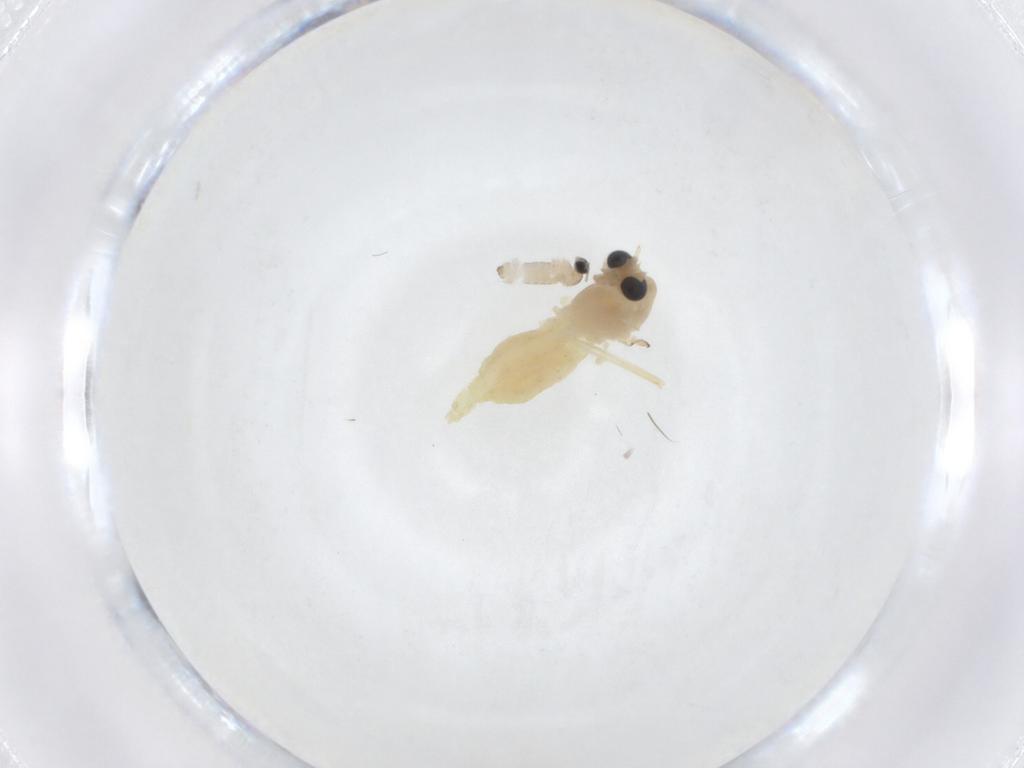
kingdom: Animalia
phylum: Arthropoda
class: Insecta
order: Diptera
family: Chironomidae
